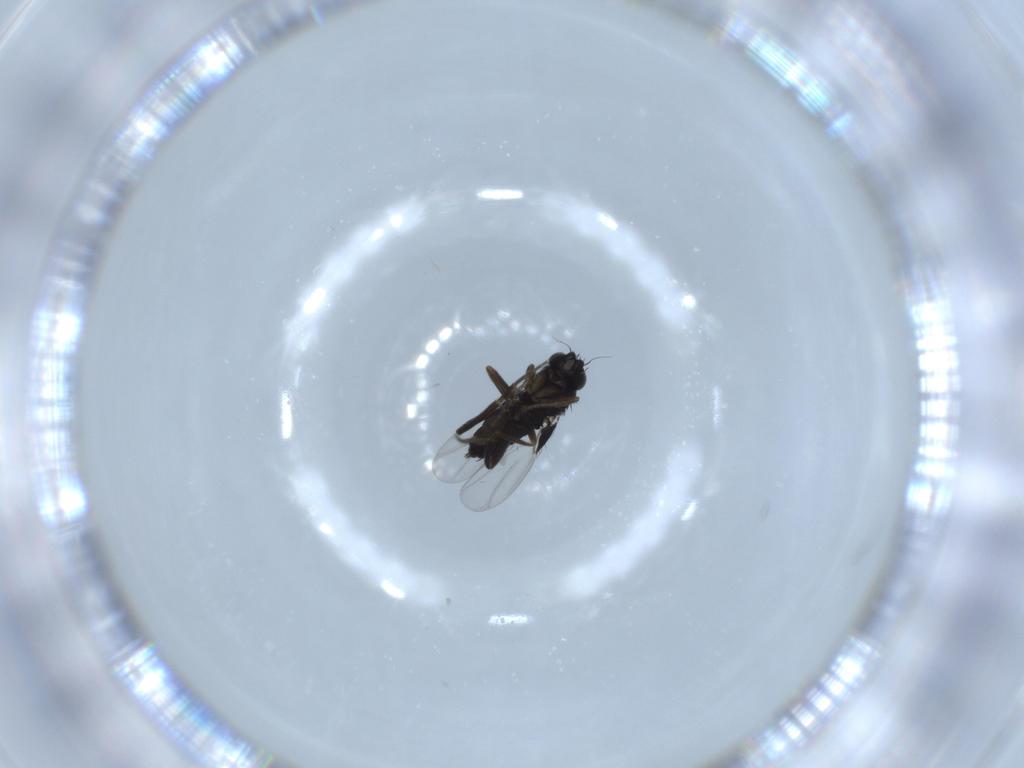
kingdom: Animalia
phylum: Arthropoda
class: Insecta
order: Diptera
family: Phoridae
